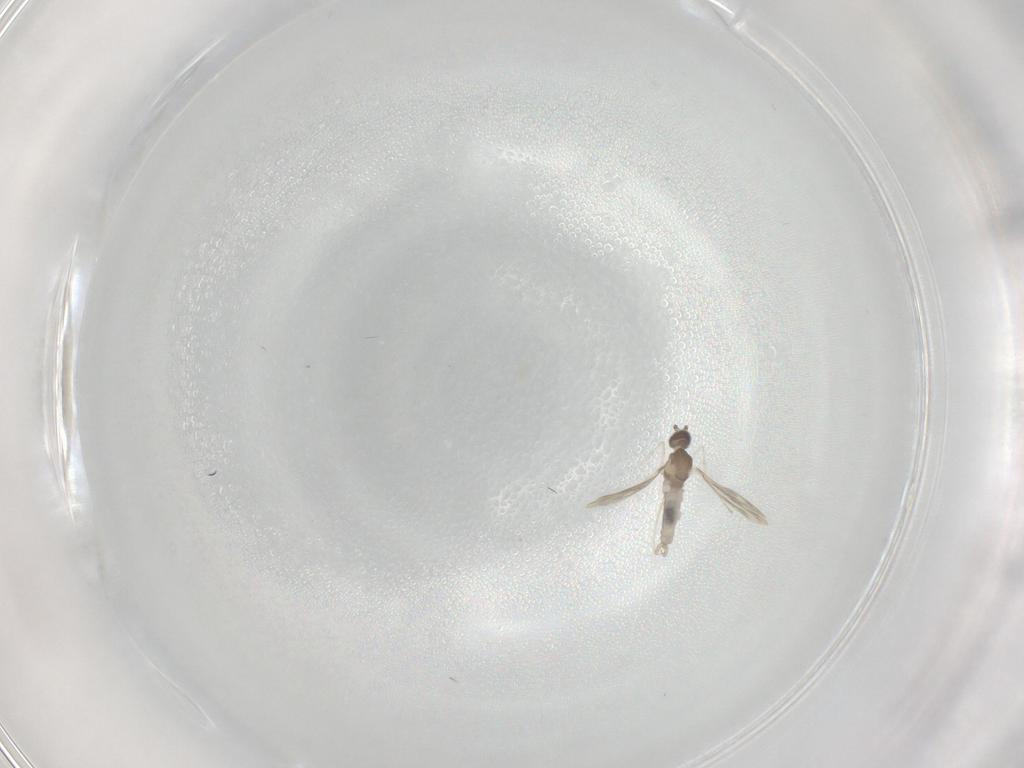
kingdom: Animalia
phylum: Arthropoda
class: Insecta
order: Diptera
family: Cecidomyiidae
